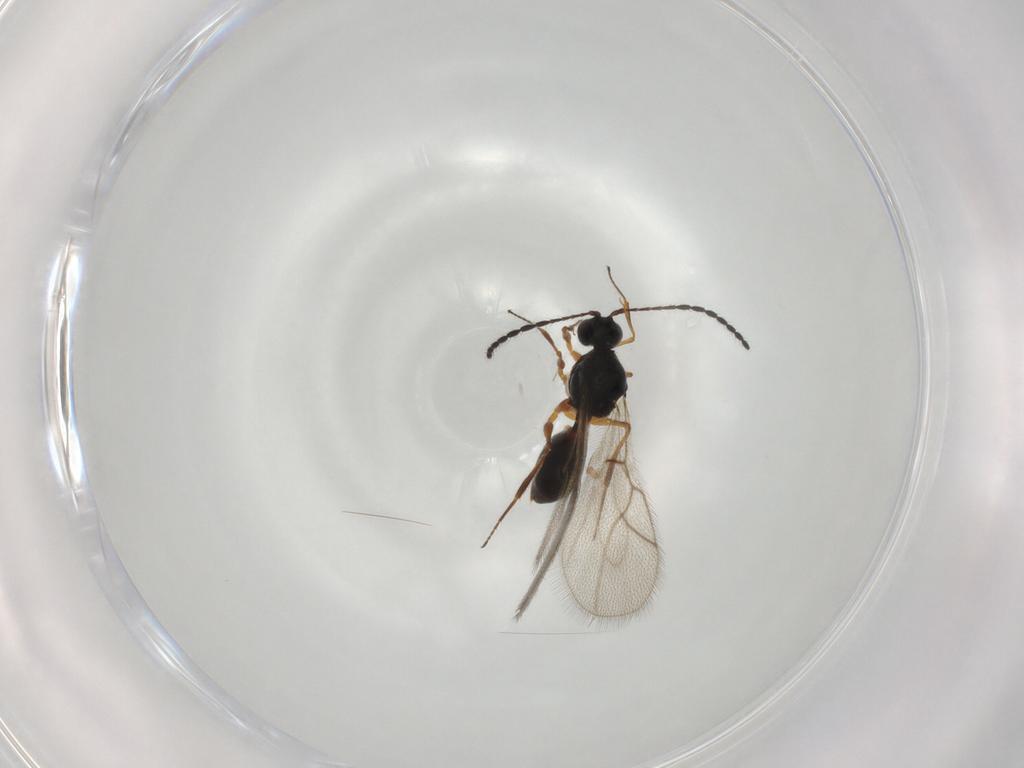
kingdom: Animalia
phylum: Arthropoda
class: Insecta
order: Hymenoptera
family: Figitidae
